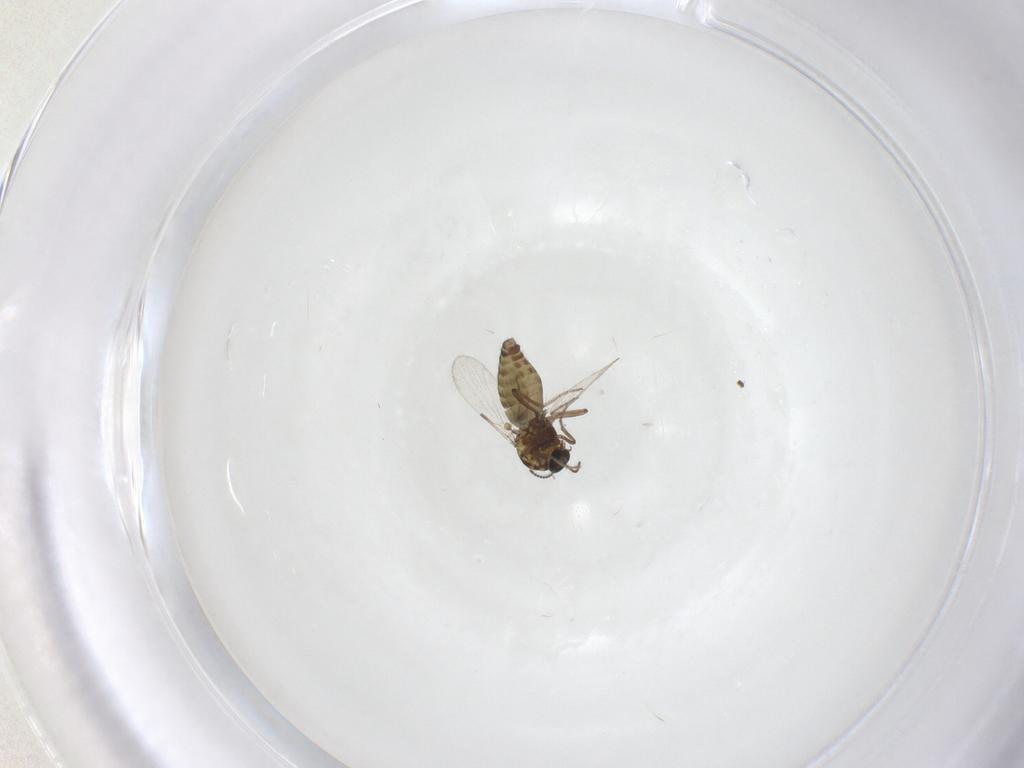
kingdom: Animalia
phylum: Arthropoda
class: Insecta
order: Diptera
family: Ceratopogonidae
